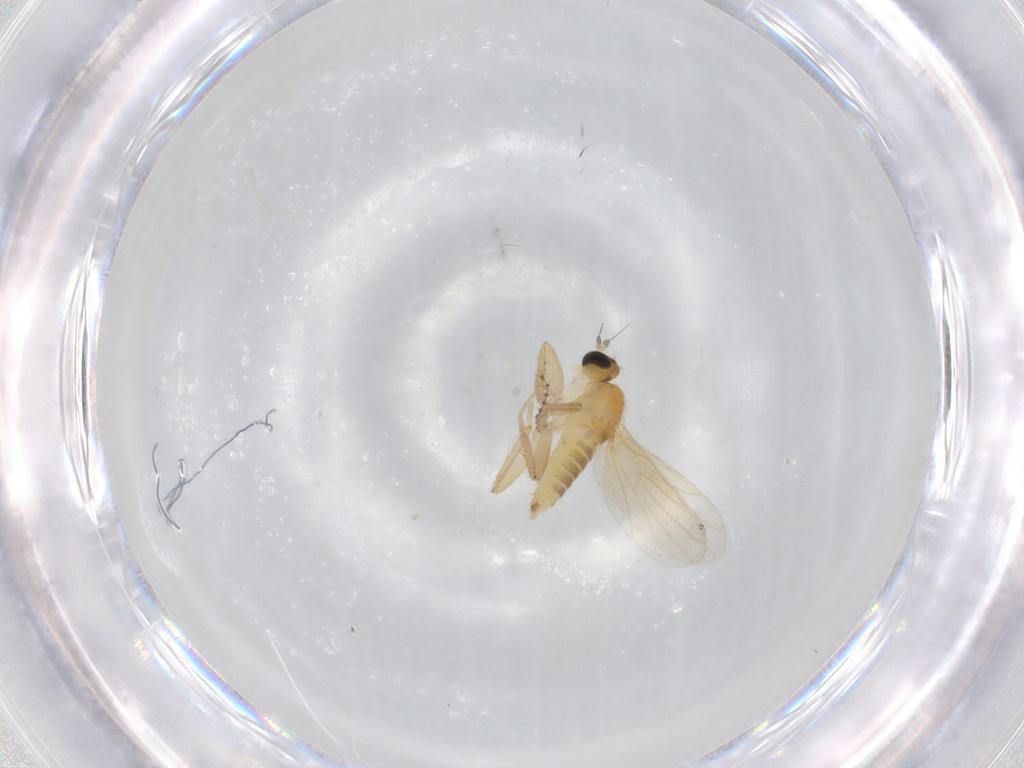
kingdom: Animalia
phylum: Arthropoda
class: Insecta
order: Diptera
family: Hybotidae
